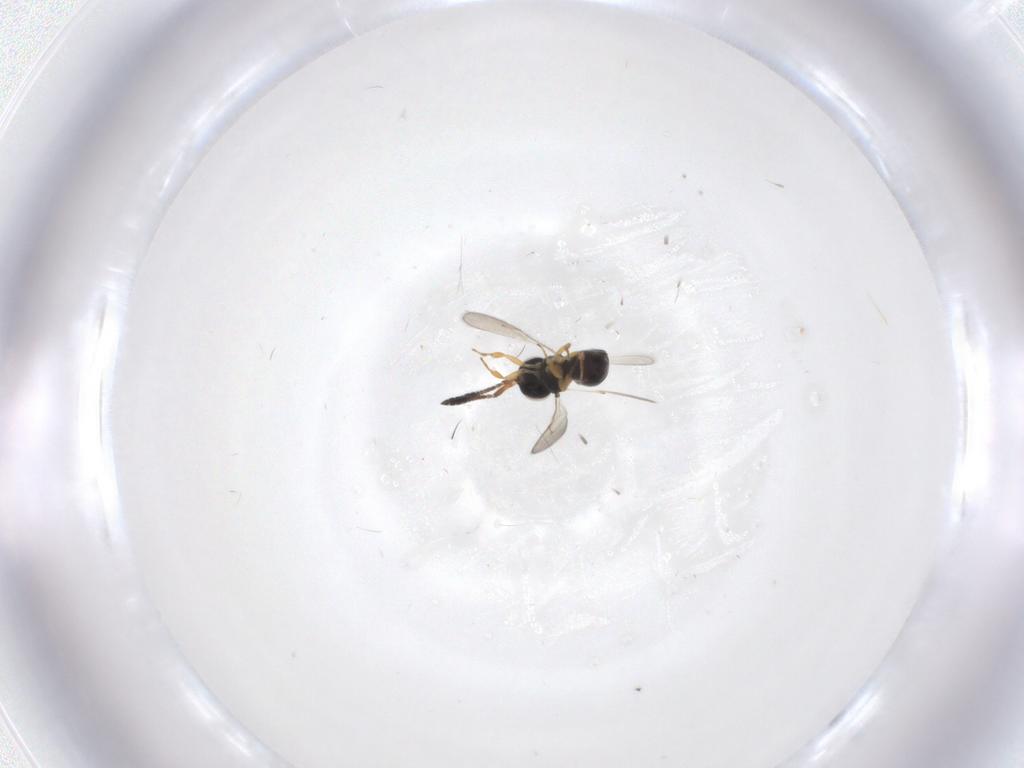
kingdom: Animalia
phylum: Arthropoda
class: Insecta
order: Hymenoptera
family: Scelionidae
